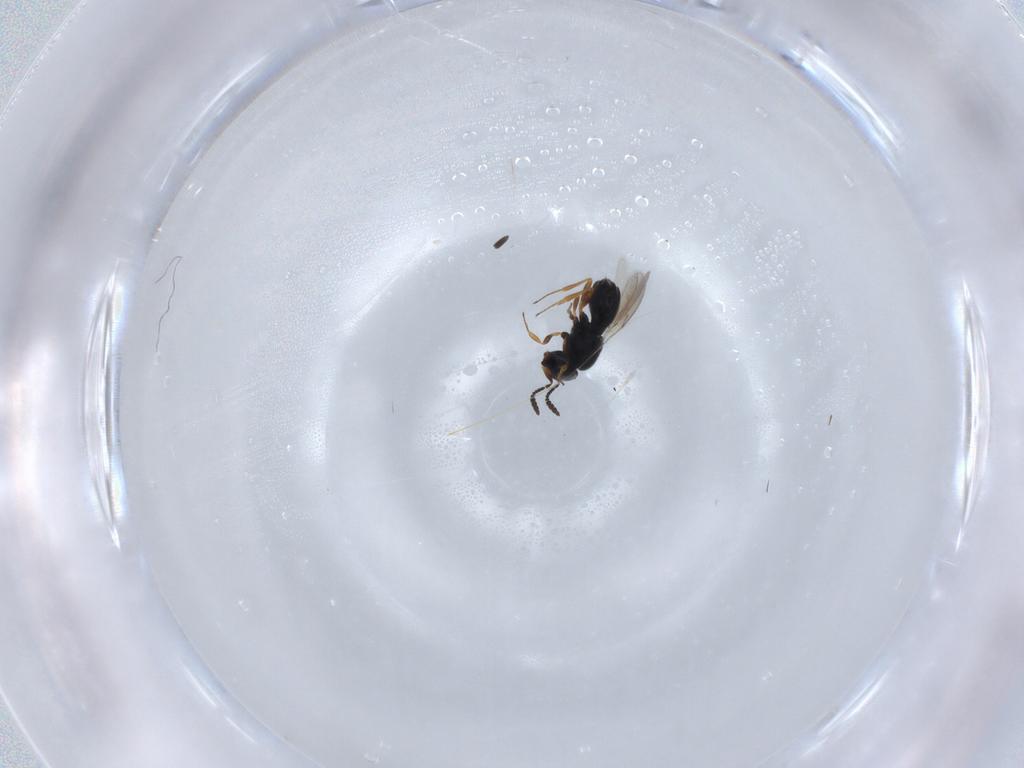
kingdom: Animalia
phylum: Arthropoda
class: Insecta
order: Hymenoptera
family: Scelionidae
